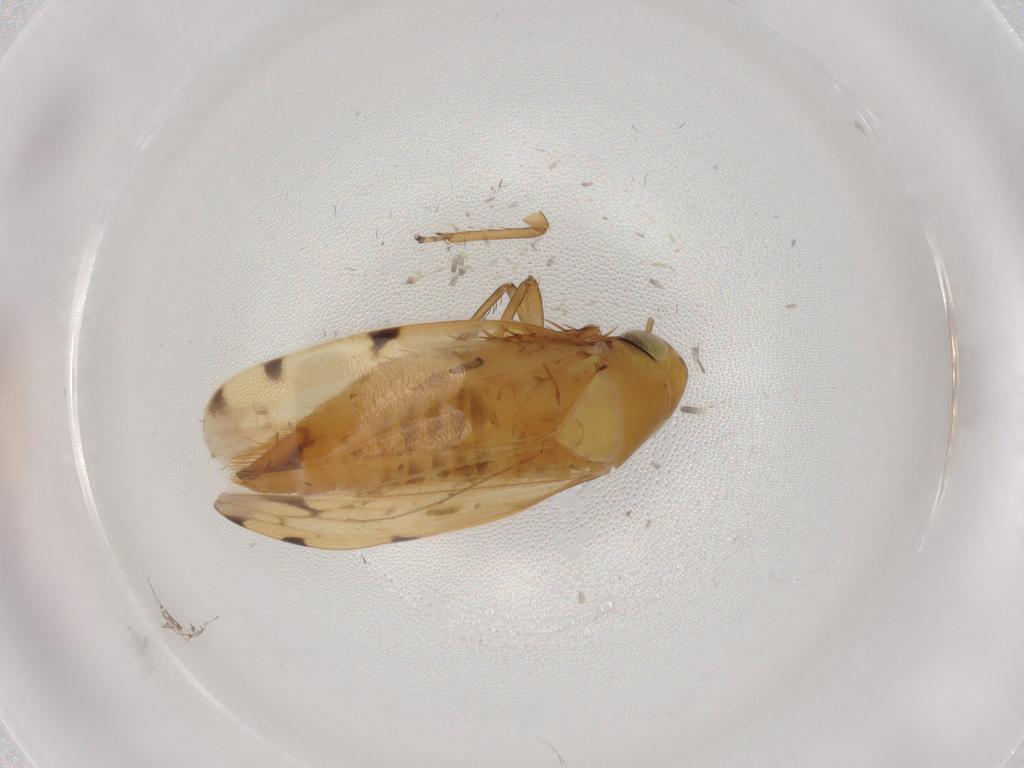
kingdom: Animalia
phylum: Arthropoda
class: Insecta
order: Hemiptera
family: Cicadellidae
